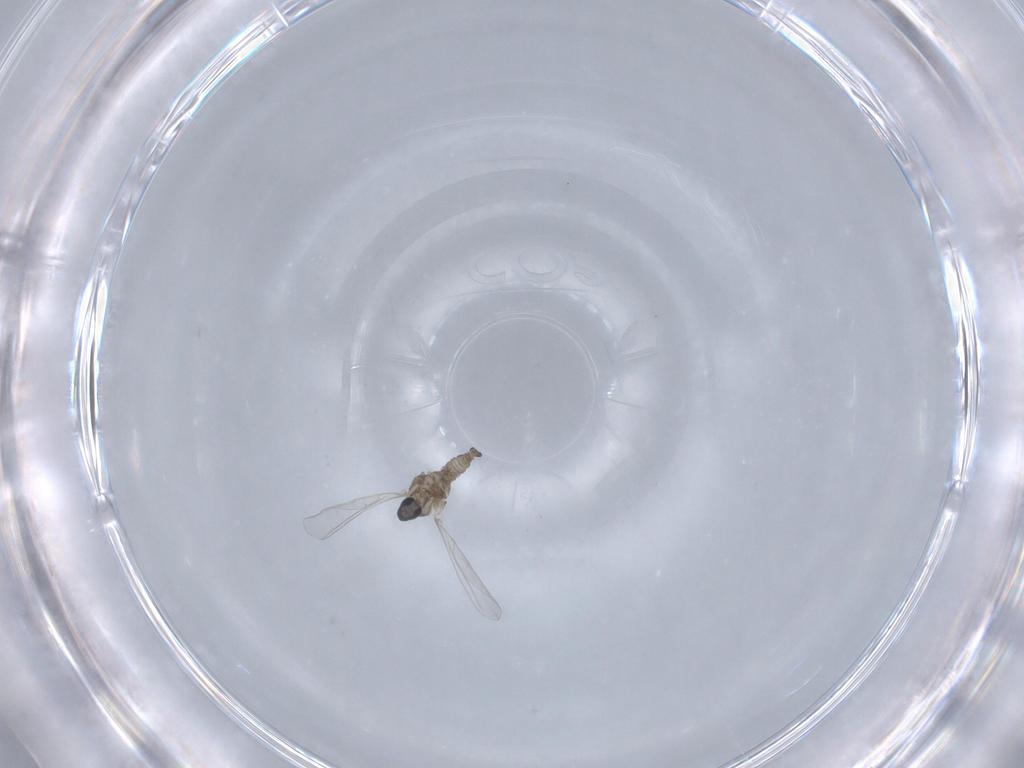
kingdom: Animalia
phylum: Arthropoda
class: Insecta
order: Diptera
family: Cecidomyiidae
